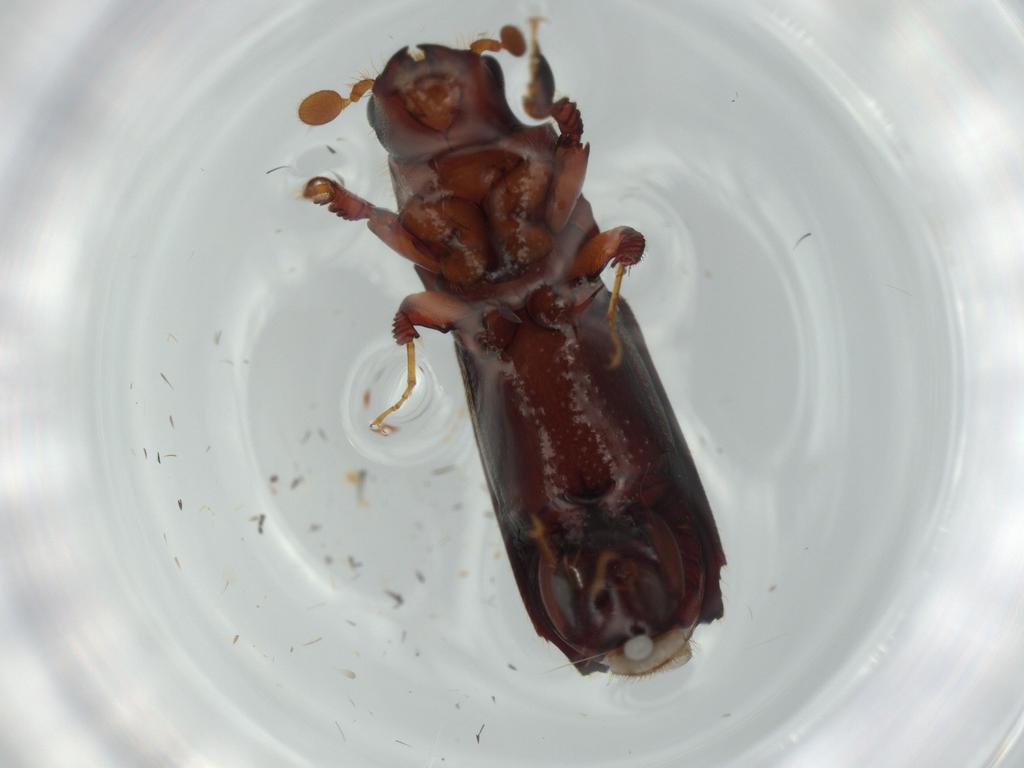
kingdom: Animalia
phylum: Arthropoda
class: Insecta
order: Coleoptera
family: Curculionidae
